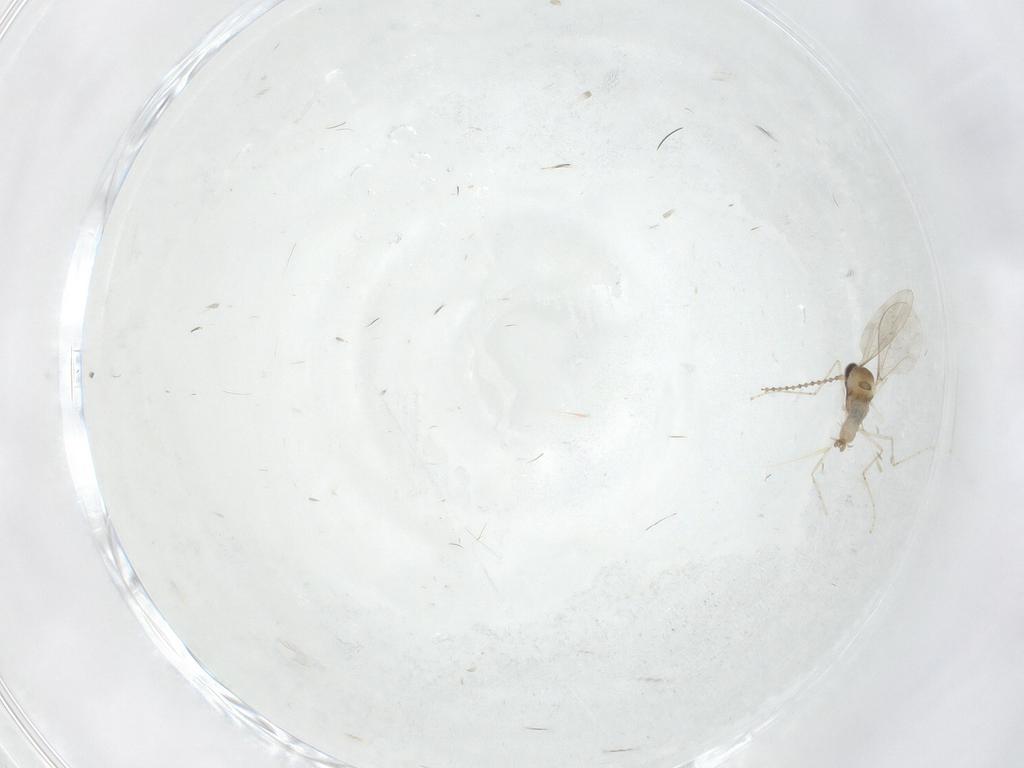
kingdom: Animalia
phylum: Arthropoda
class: Insecta
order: Diptera
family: Cecidomyiidae
